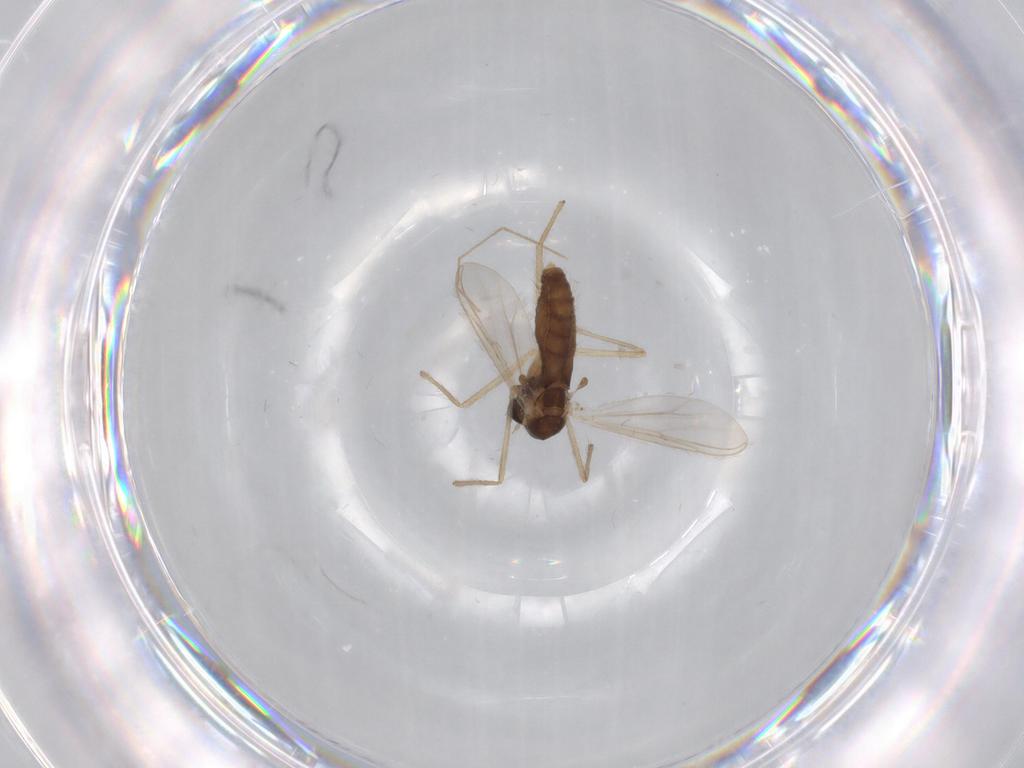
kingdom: Animalia
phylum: Arthropoda
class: Insecta
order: Diptera
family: Chironomidae
